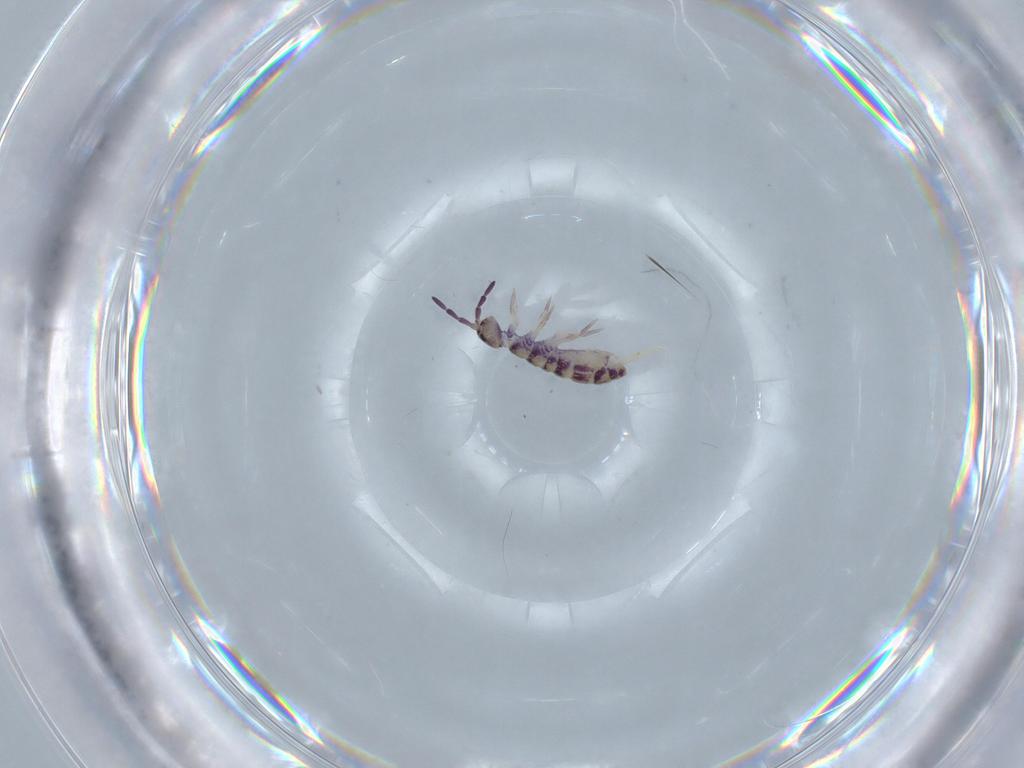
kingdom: Animalia
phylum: Arthropoda
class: Collembola
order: Entomobryomorpha
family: Isotomidae
